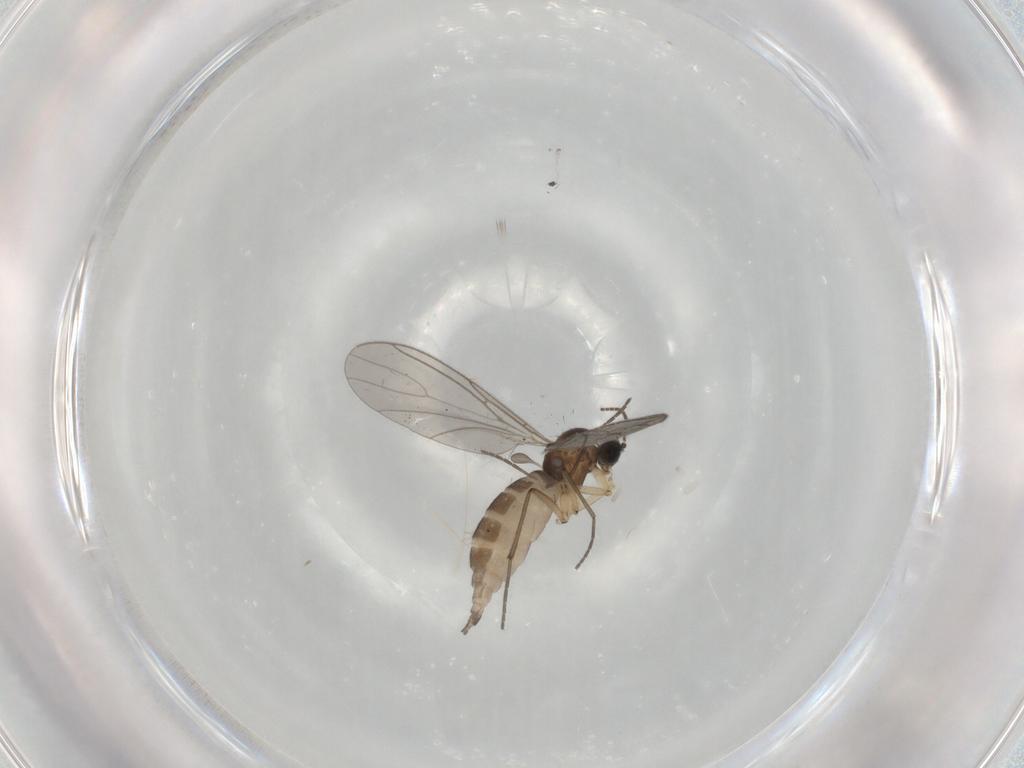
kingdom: Animalia
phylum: Arthropoda
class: Insecta
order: Diptera
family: Sciaridae
